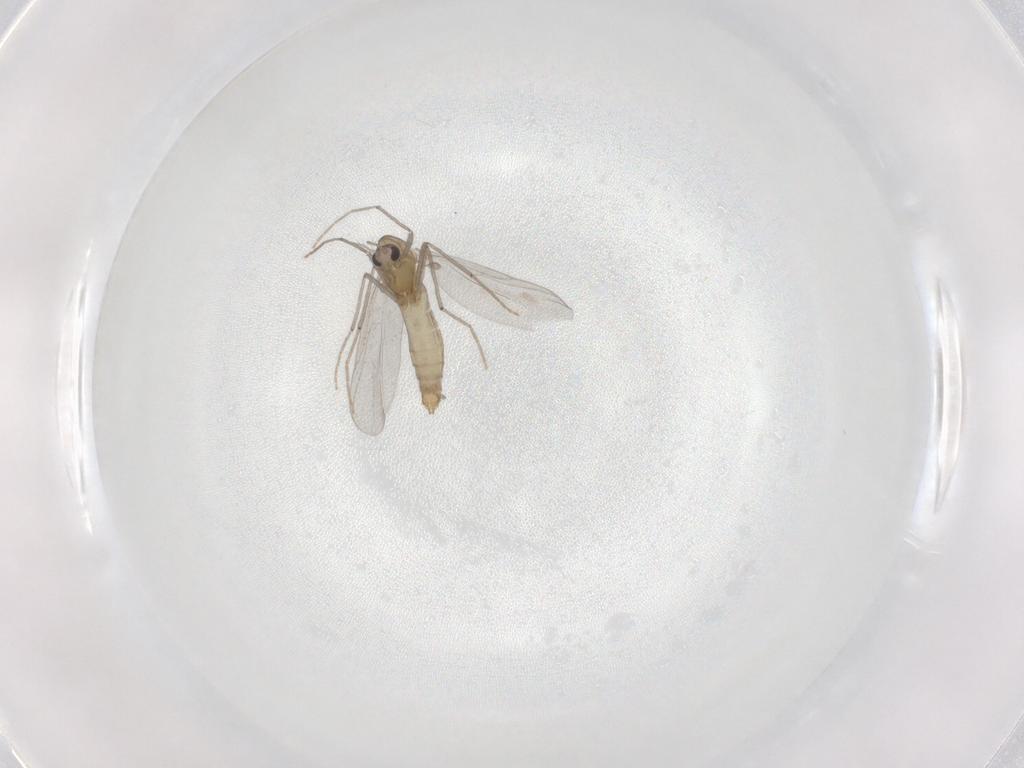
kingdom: Animalia
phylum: Arthropoda
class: Insecta
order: Diptera
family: Chironomidae
